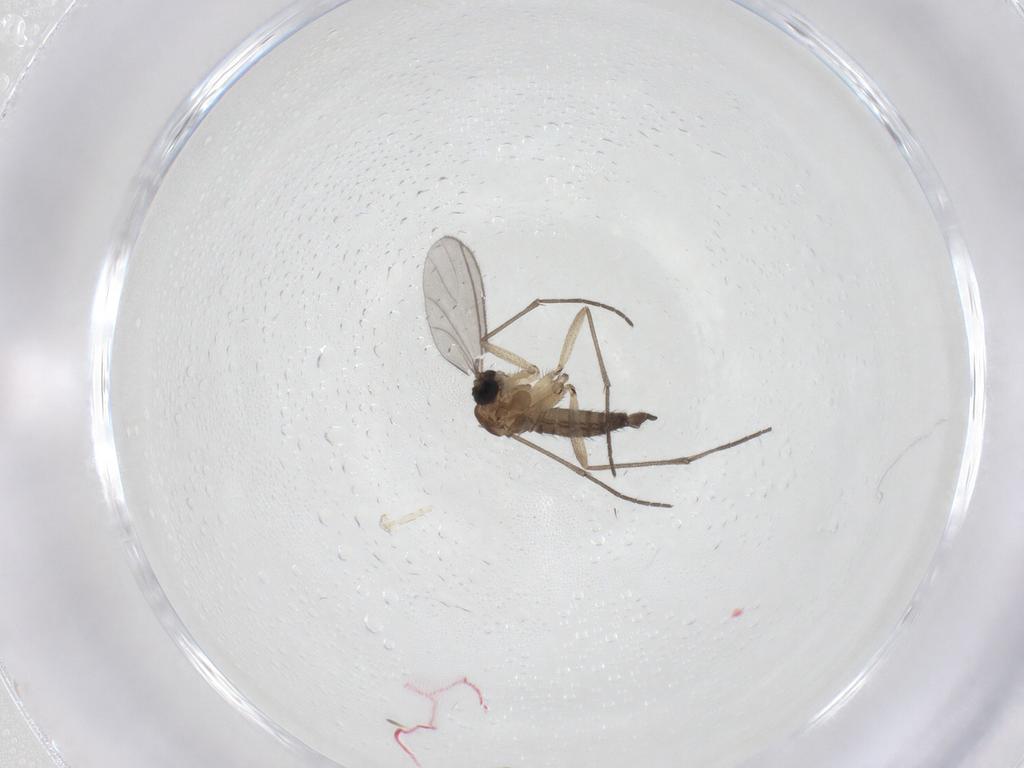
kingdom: Animalia
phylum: Arthropoda
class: Insecta
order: Diptera
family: Sciaridae
